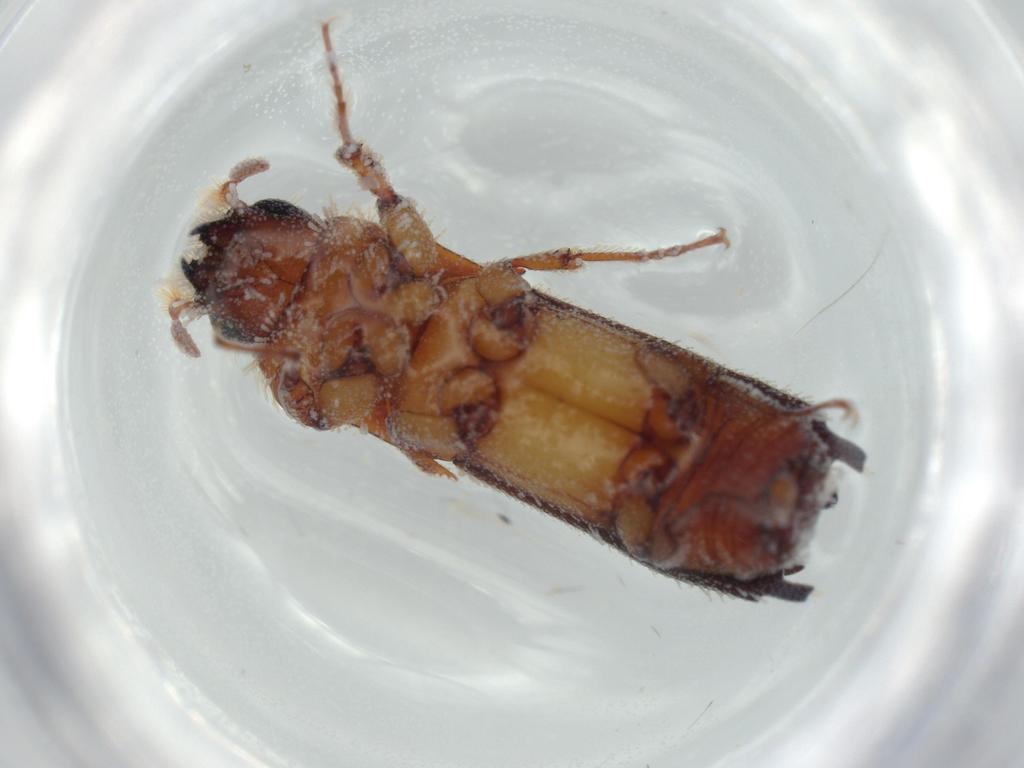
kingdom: Animalia
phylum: Arthropoda
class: Insecta
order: Coleoptera
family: Curculionidae
